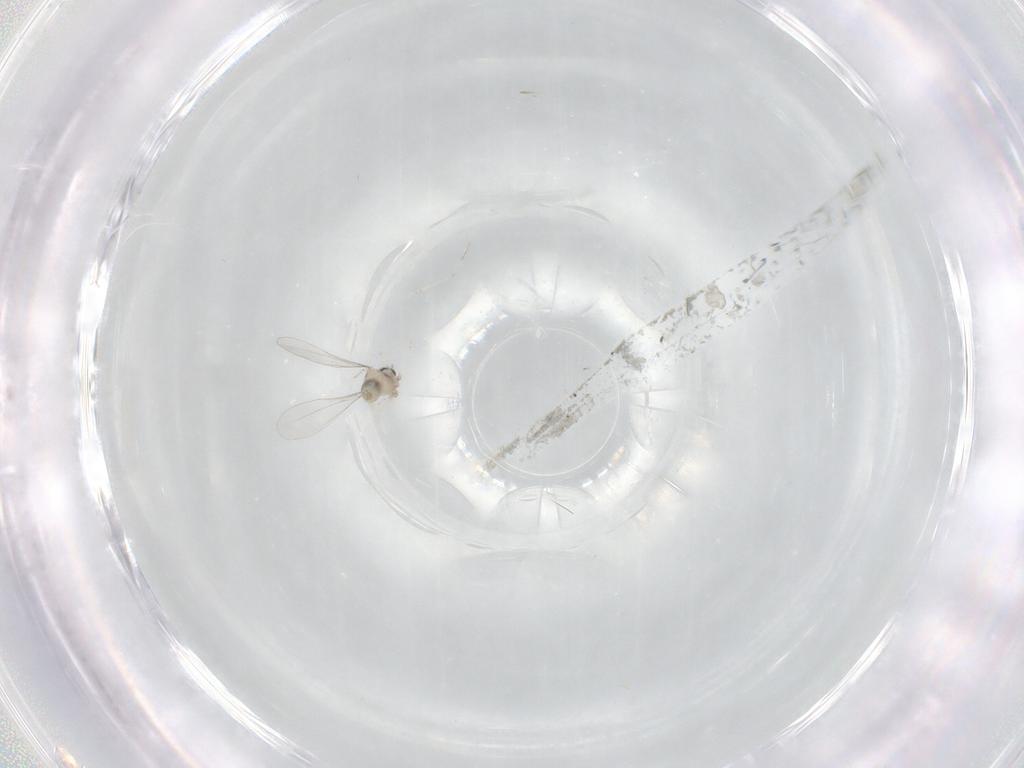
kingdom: Animalia
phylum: Arthropoda
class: Insecta
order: Diptera
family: Cecidomyiidae
